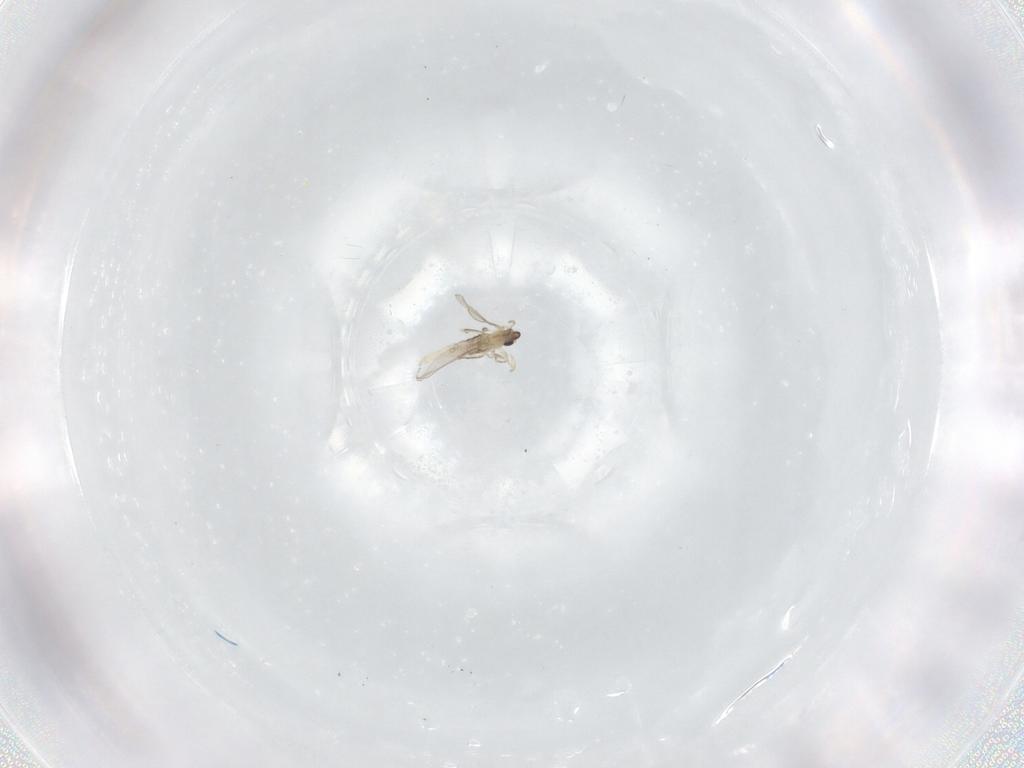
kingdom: Animalia
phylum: Arthropoda
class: Insecta
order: Diptera
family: Cecidomyiidae
